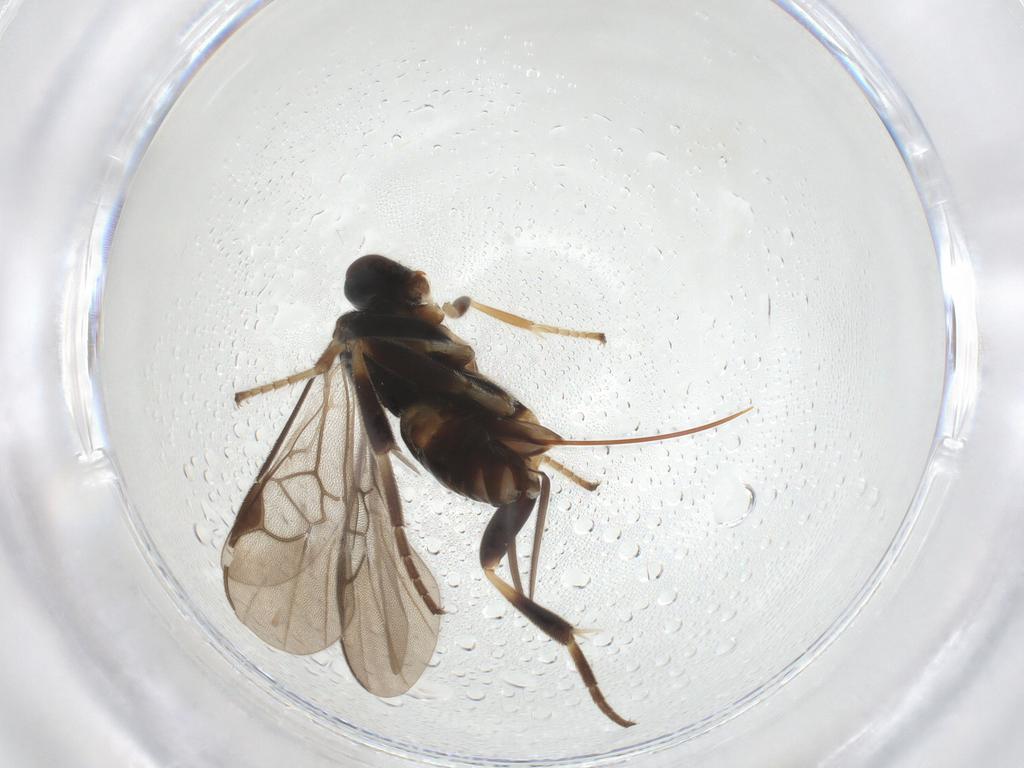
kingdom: Animalia
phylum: Arthropoda
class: Insecta
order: Hymenoptera
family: Braconidae
